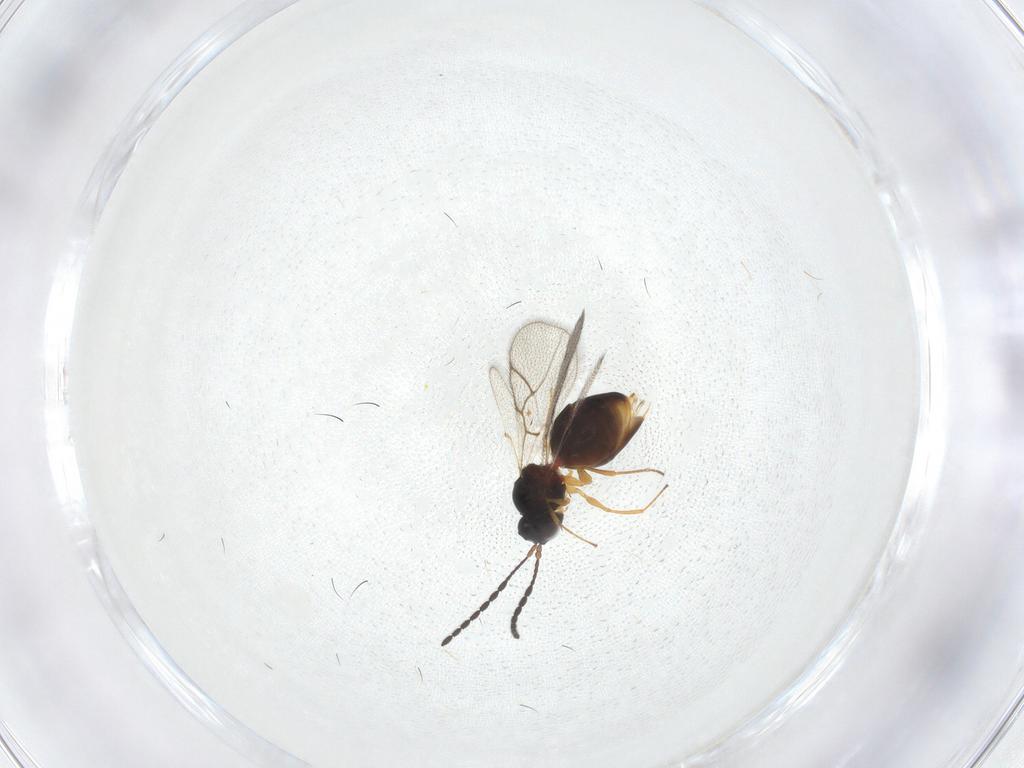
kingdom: Animalia
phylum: Arthropoda
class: Insecta
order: Hymenoptera
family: Figitidae
